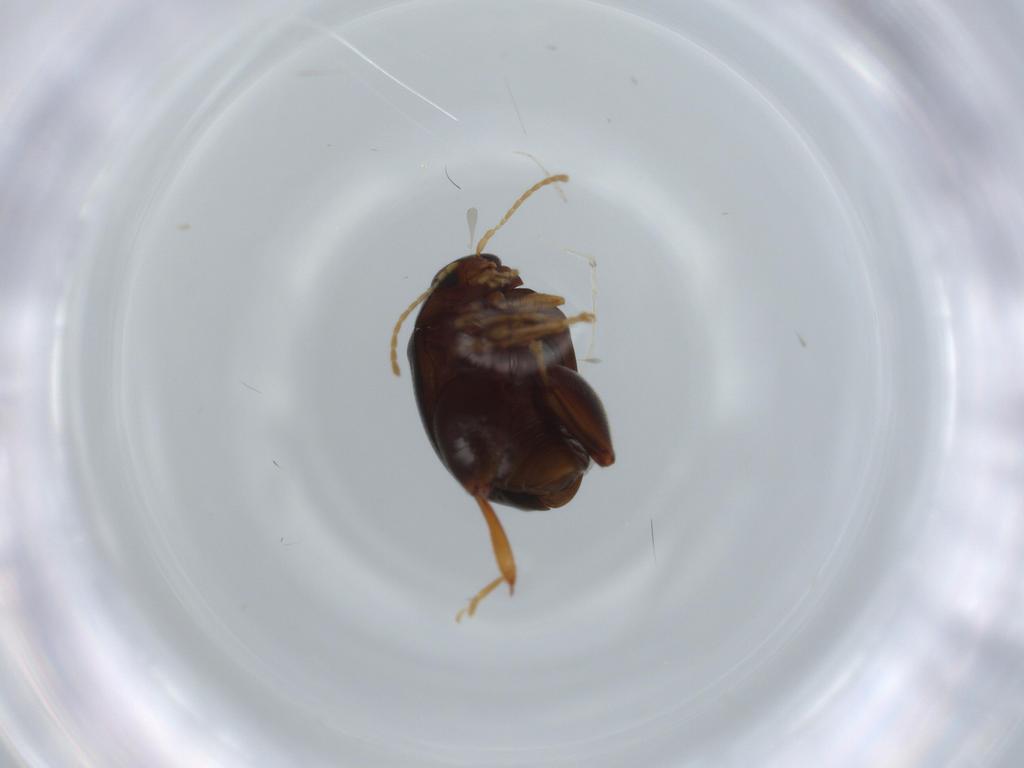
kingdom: Animalia
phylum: Arthropoda
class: Insecta
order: Coleoptera
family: Chrysomelidae
